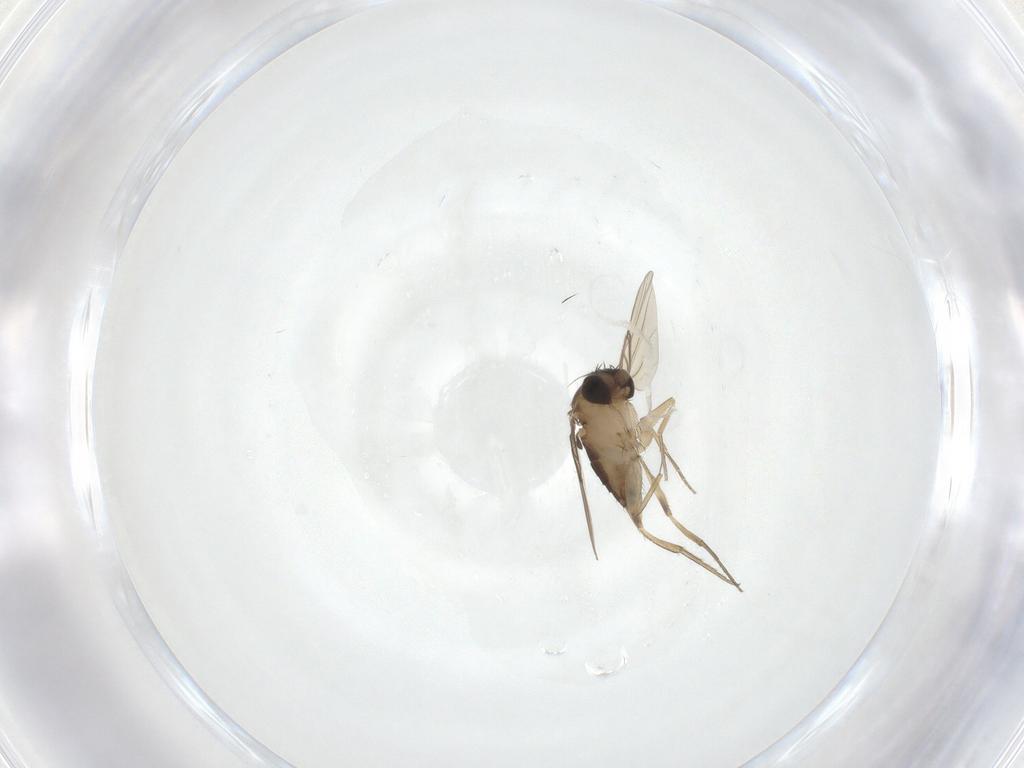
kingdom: Animalia
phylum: Arthropoda
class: Insecta
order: Diptera
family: Phoridae
